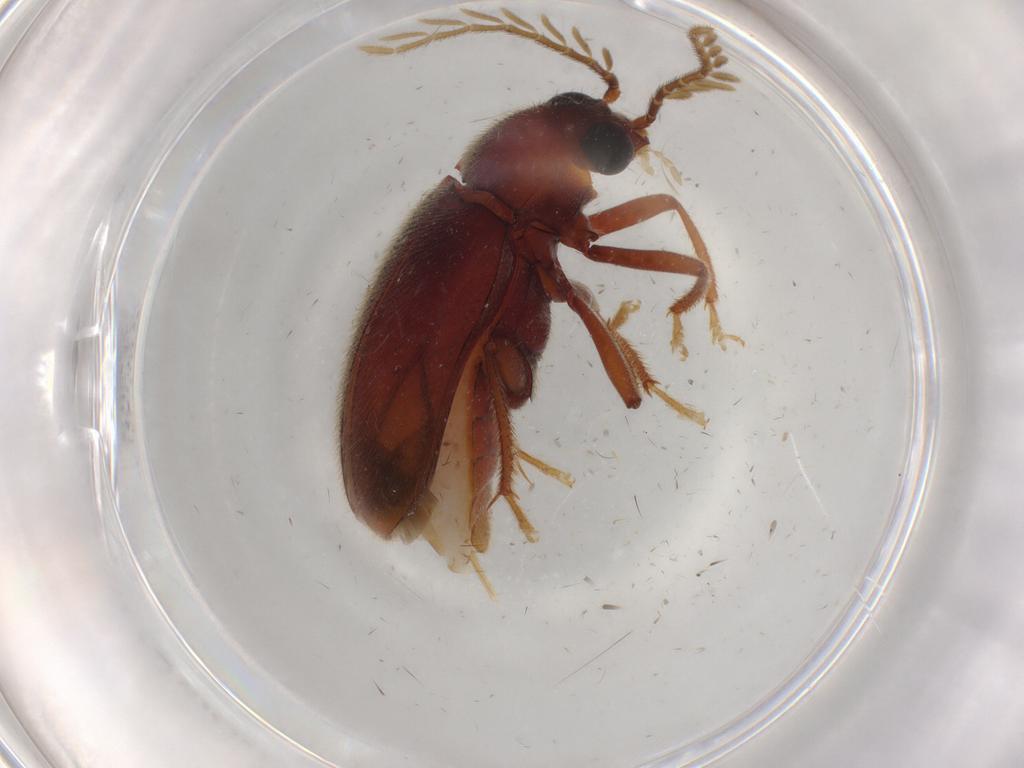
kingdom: Animalia
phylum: Arthropoda
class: Insecta
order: Coleoptera
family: Ptilodactylidae
